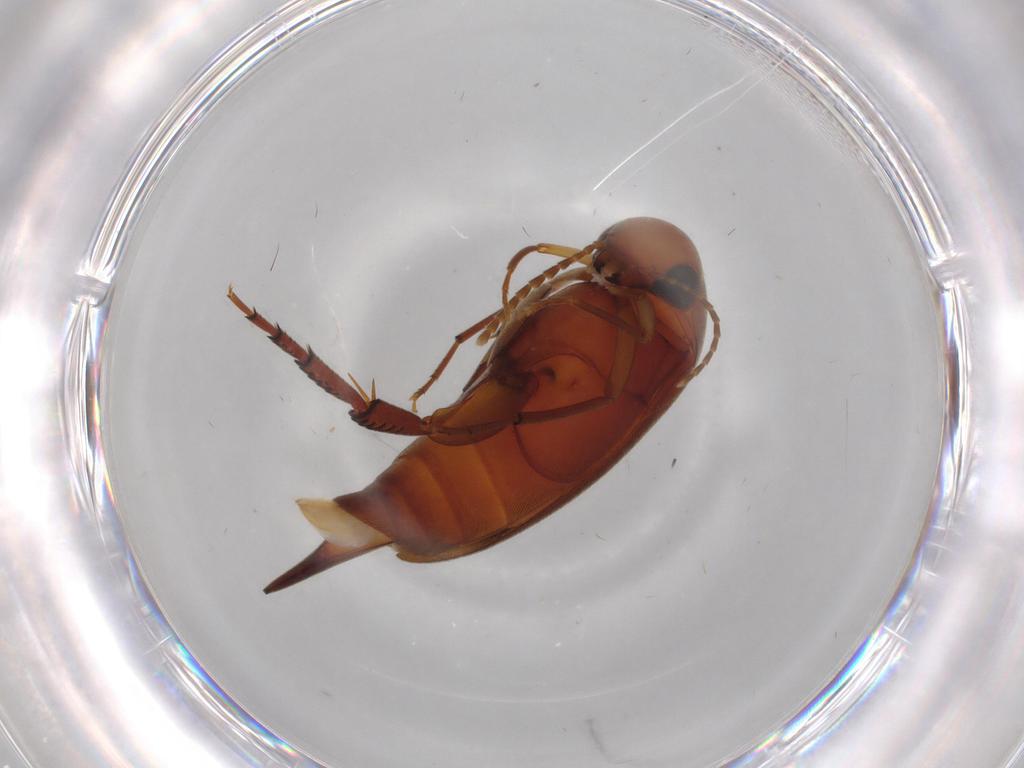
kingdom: Animalia
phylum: Arthropoda
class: Insecta
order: Coleoptera
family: Mordellidae
